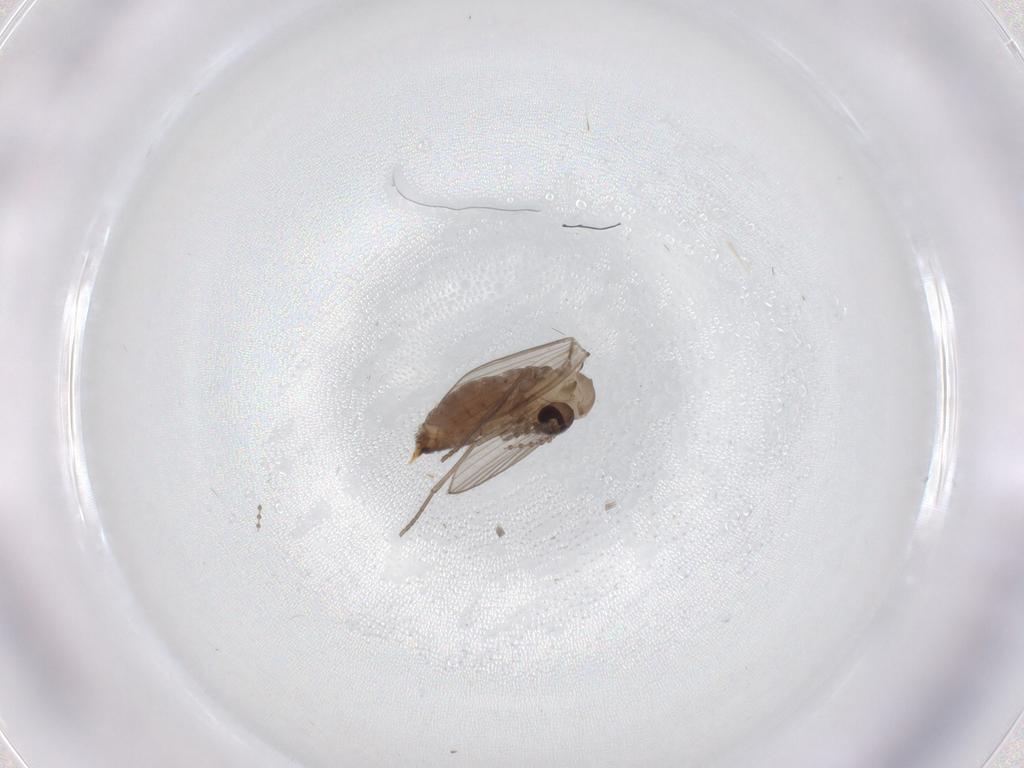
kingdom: Animalia
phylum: Arthropoda
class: Insecta
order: Diptera
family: Psychodidae
